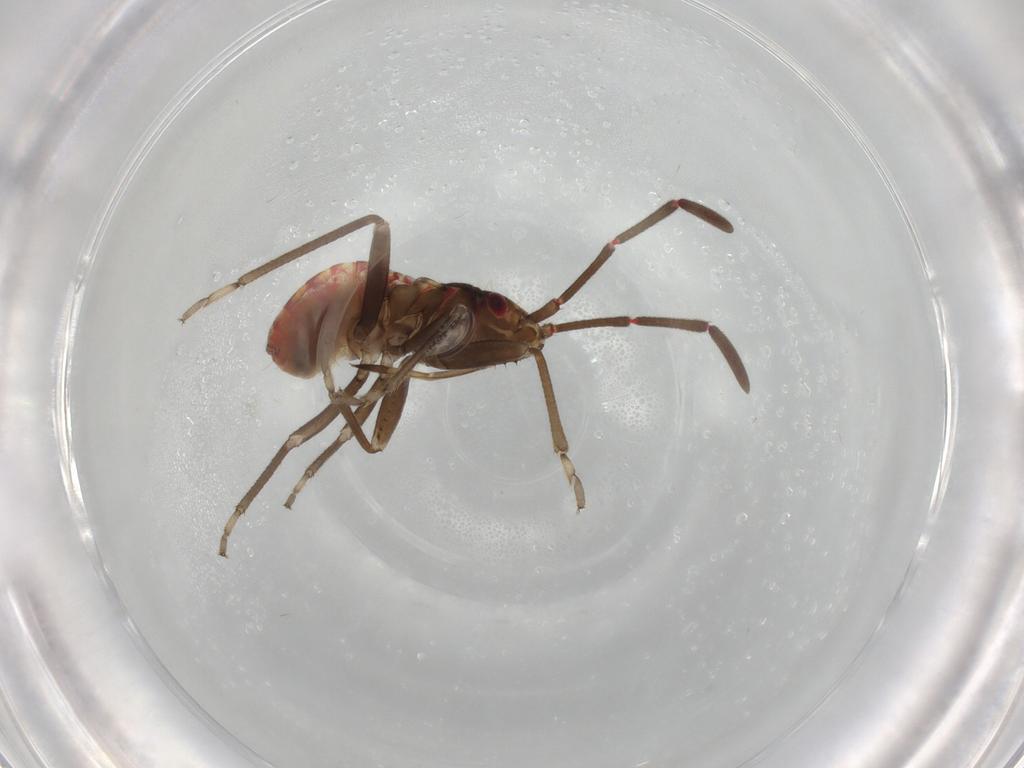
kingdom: Animalia
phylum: Arthropoda
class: Insecta
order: Hemiptera
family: Rhyparochromidae
